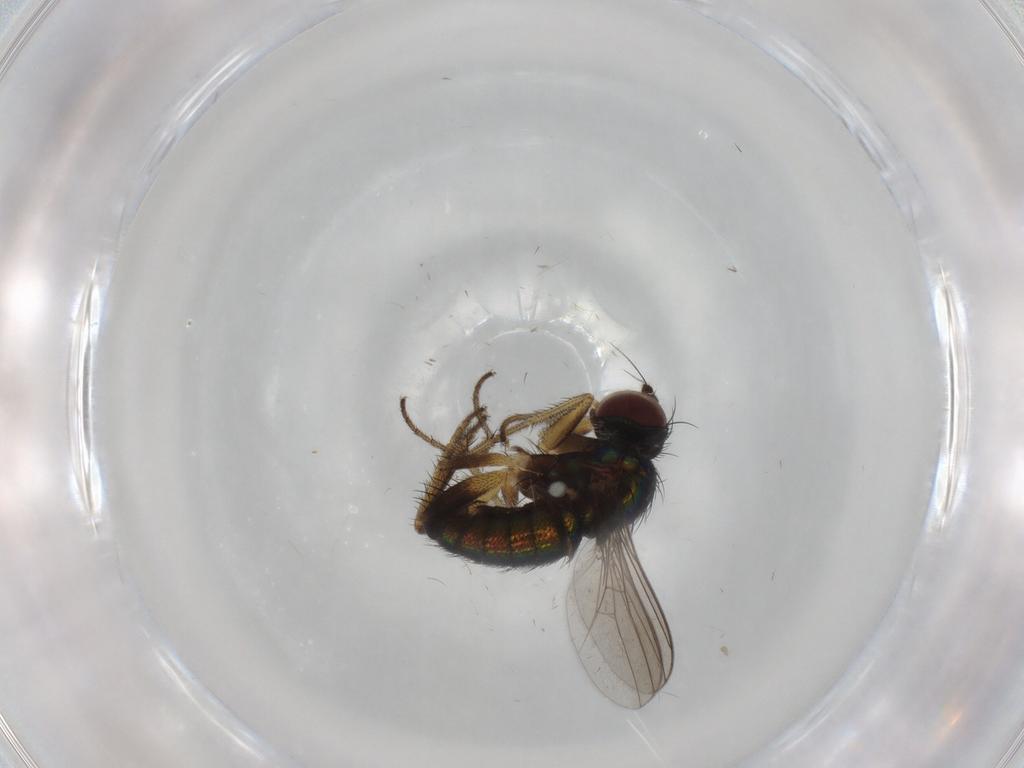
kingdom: Animalia
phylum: Arthropoda
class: Insecta
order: Diptera
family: Dolichopodidae
